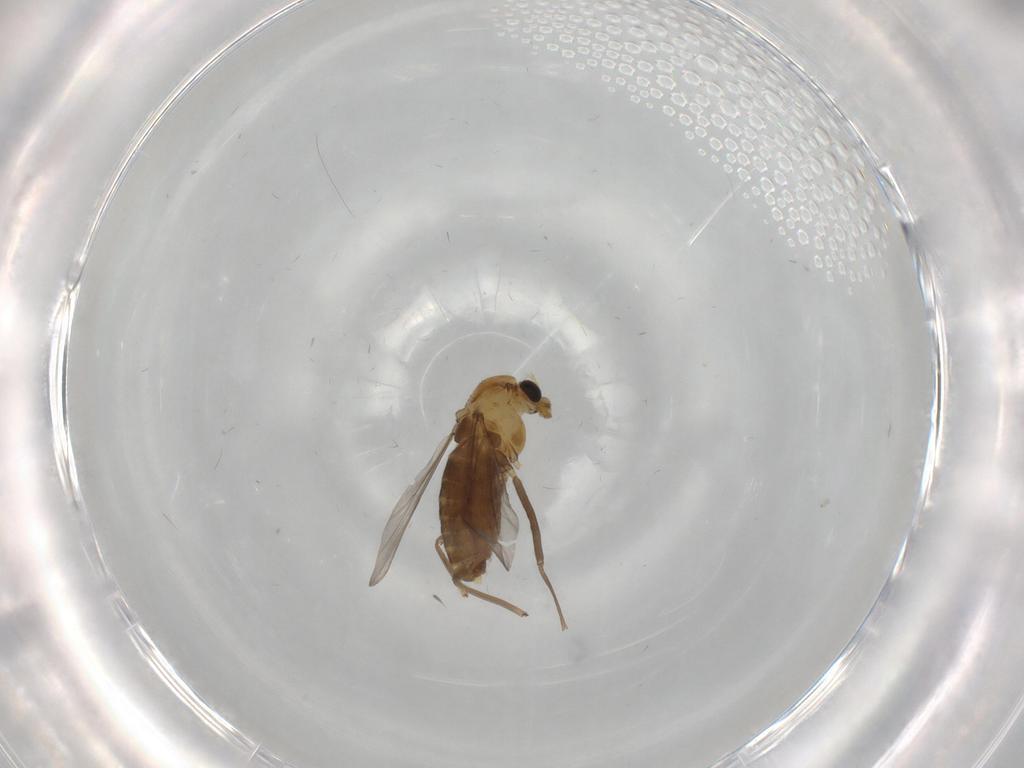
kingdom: Animalia
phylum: Arthropoda
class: Insecta
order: Diptera
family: Chironomidae
